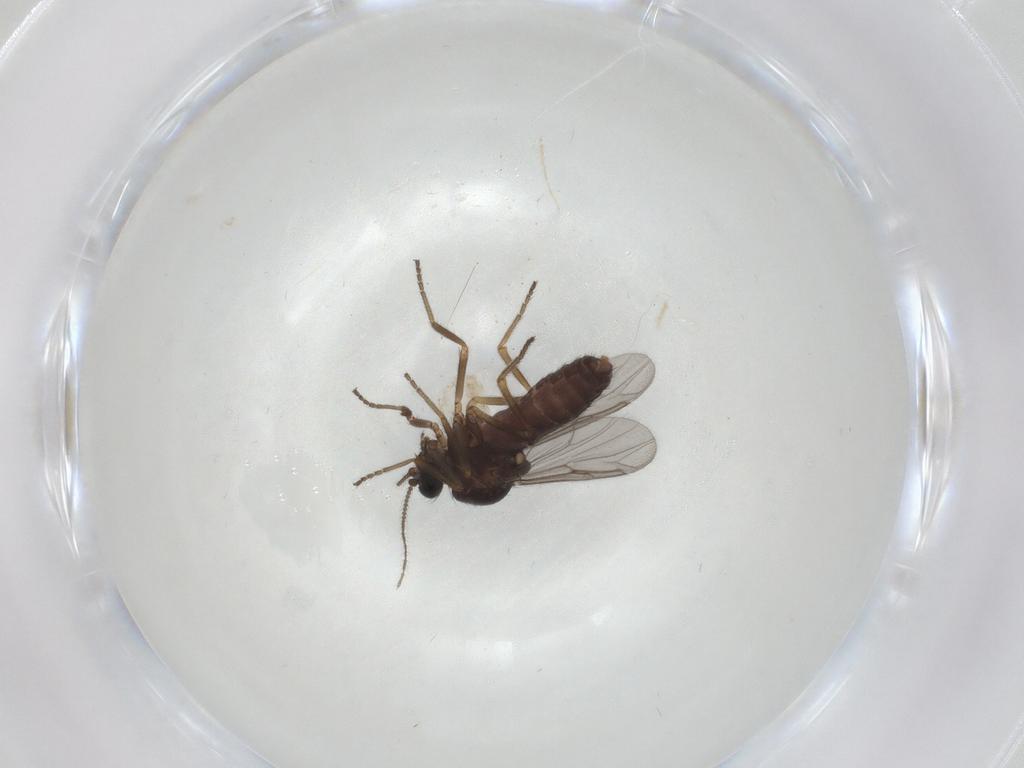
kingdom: Animalia
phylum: Arthropoda
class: Insecta
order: Diptera
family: Ceratopogonidae
